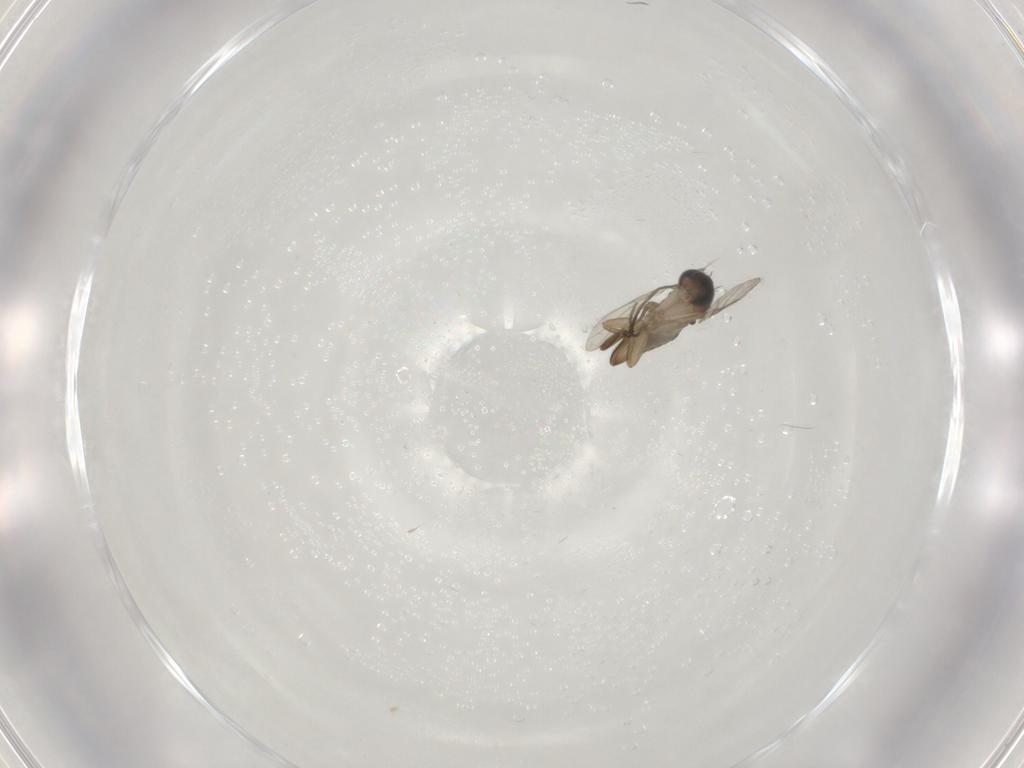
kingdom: Animalia
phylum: Arthropoda
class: Insecta
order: Diptera
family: Phoridae
